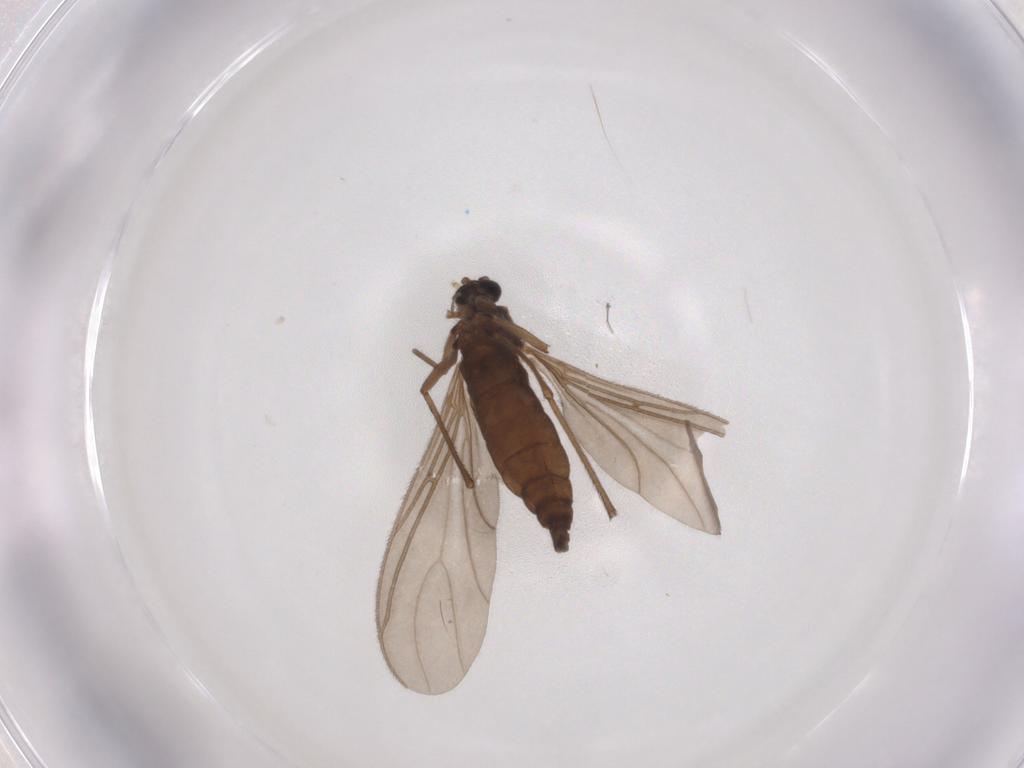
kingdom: Animalia
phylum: Arthropoda
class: Insecta
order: Diptera
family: Sciaridae
